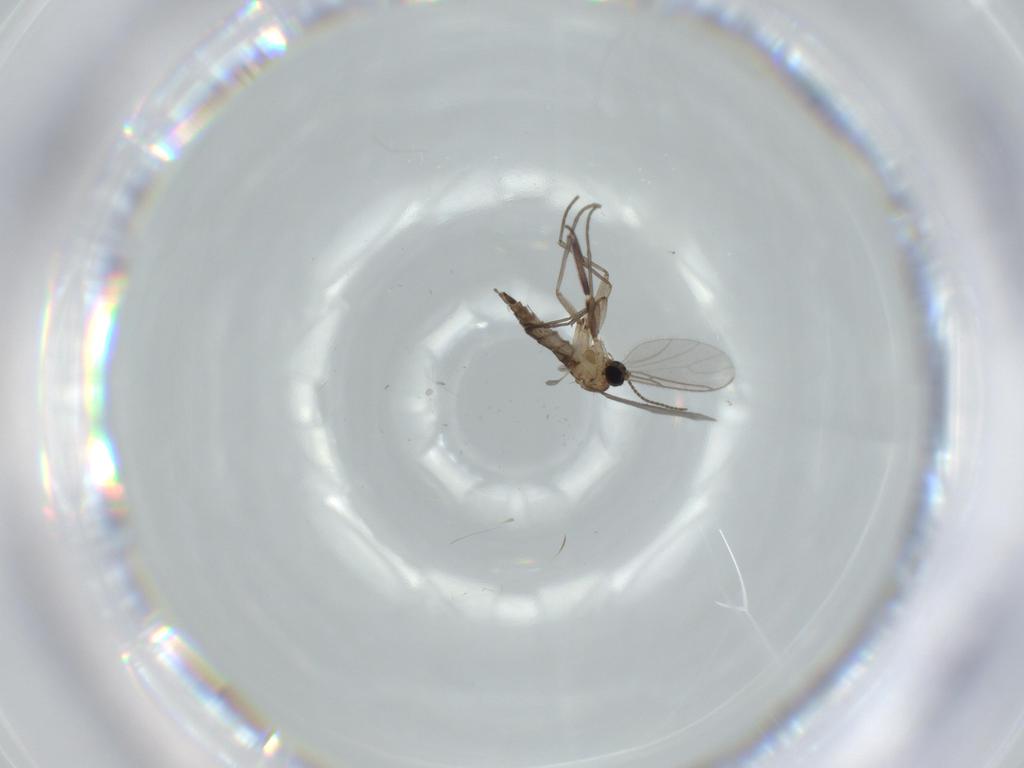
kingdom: Animalia
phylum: Arthropoda
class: Insecta
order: Diptera
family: Sciaridae
